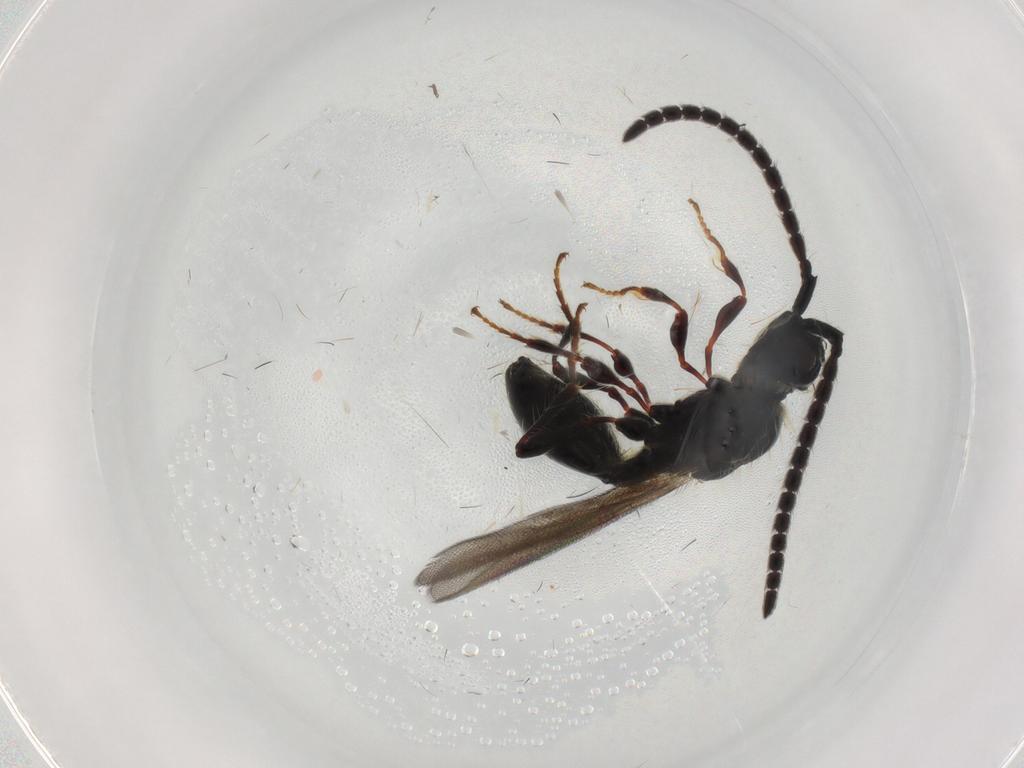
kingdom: Animalia
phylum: Arthropoda
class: Insecta
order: Hymenoptera
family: Diapriidae
